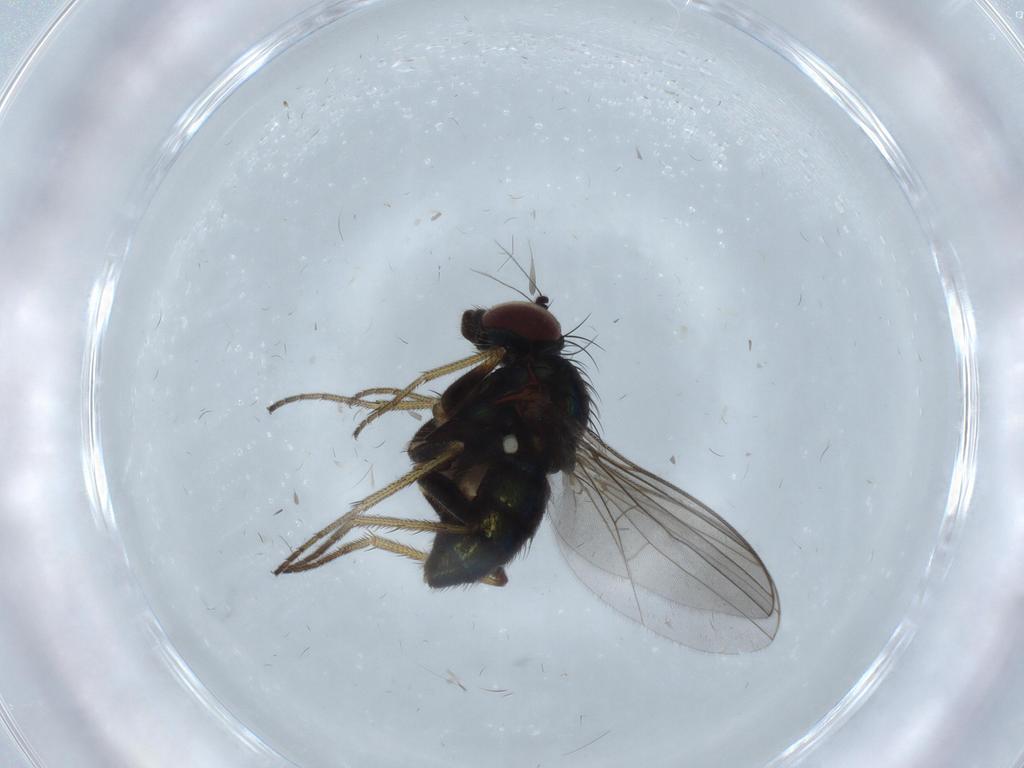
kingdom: Animalia
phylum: Arthropoda
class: Insecta
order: Diptera
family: Dolichopodidae
